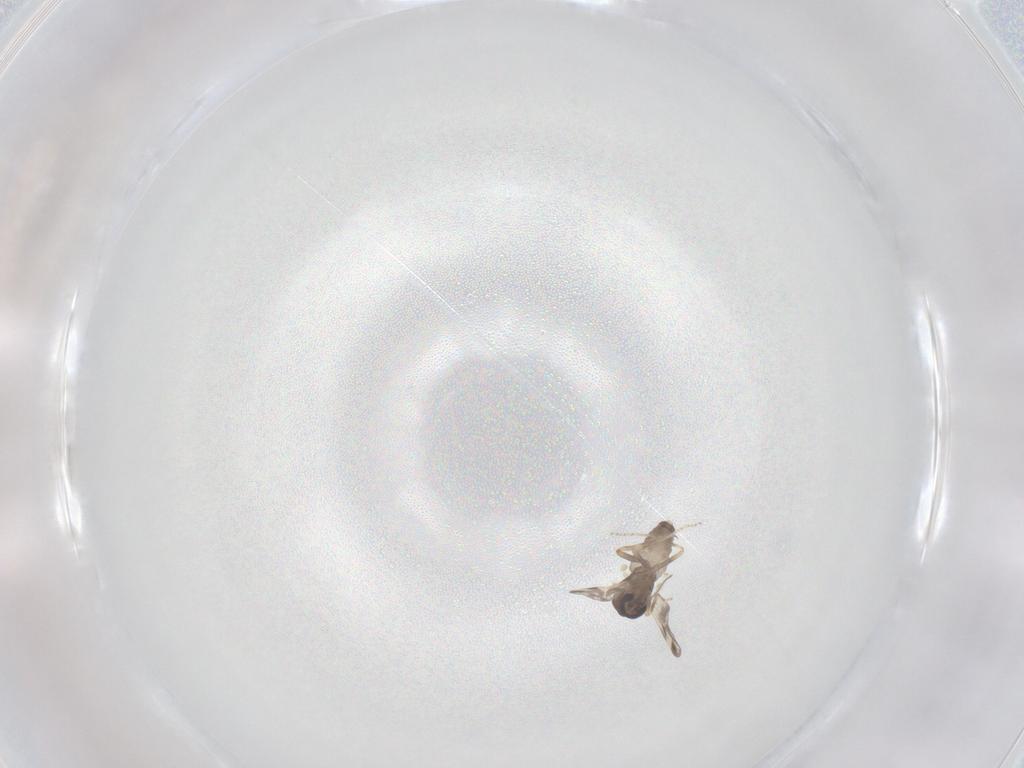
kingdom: Animalia
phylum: Arthropoda
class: Insecta
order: Diptera
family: Ceratopogonidae
